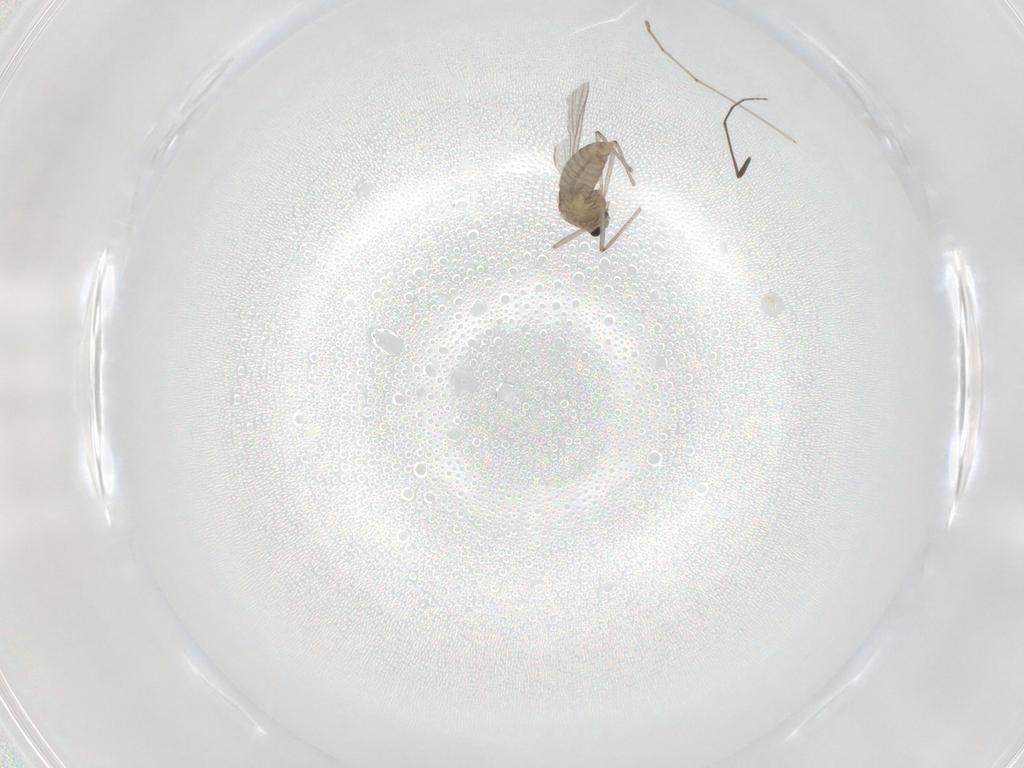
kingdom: Animalia
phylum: Arthropoda
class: Insecta
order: Diptera
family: Chironomidae
